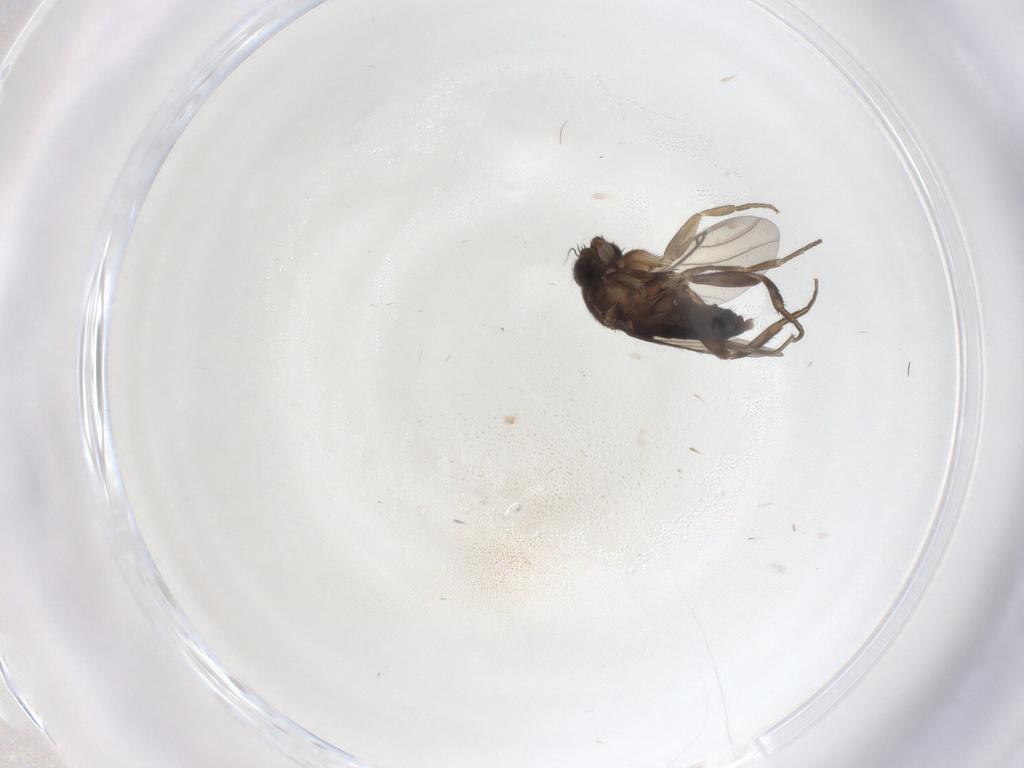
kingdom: Animalia
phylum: Arthropoda
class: Insecta
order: Diptera
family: Phoridae
